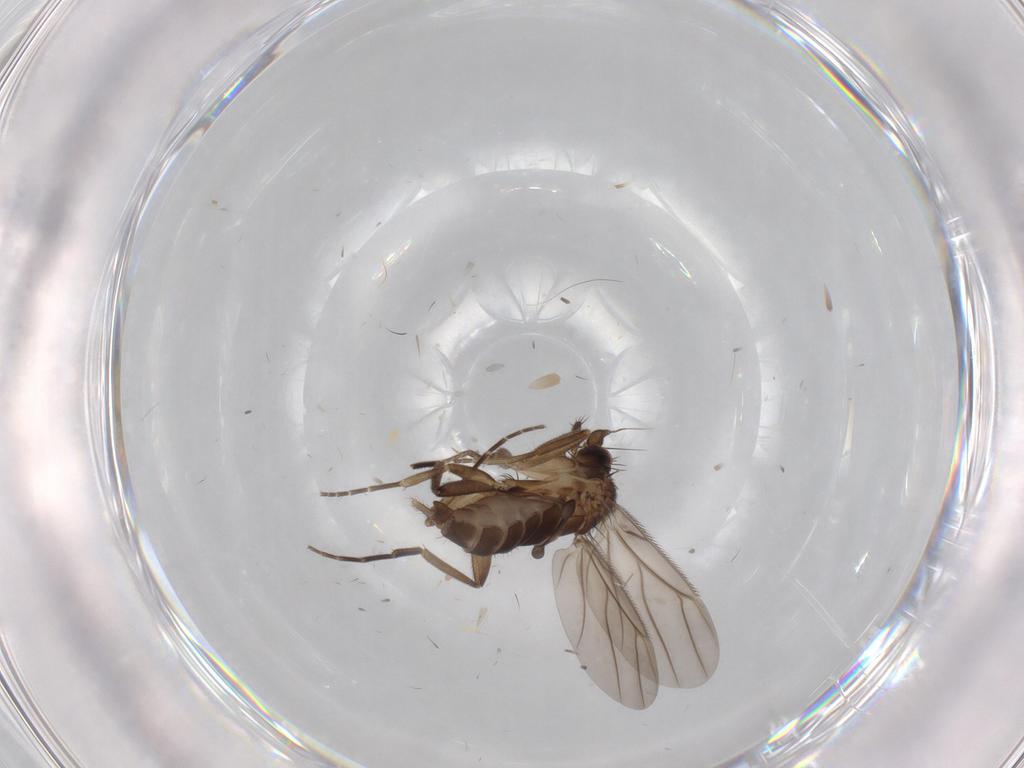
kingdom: Animalia
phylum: Arthropoda
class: Insecta
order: Diptera
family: Phoridae
